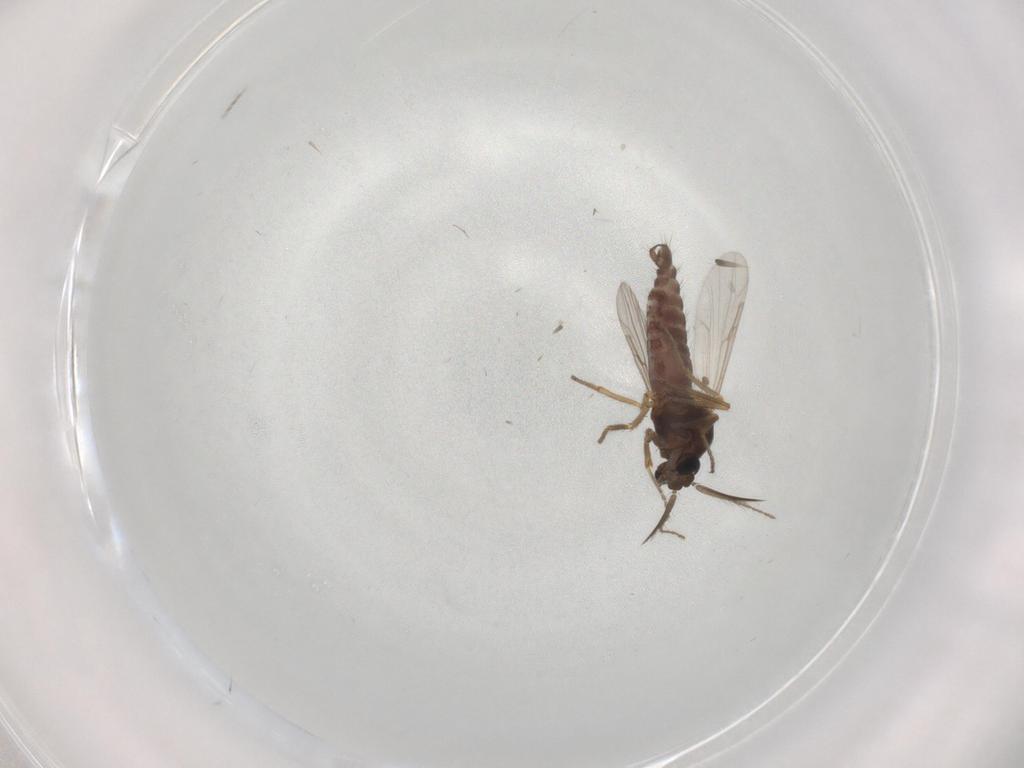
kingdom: Animalia
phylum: Arthropoda
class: Insecta
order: Diptera
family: Ceratopogonidae
